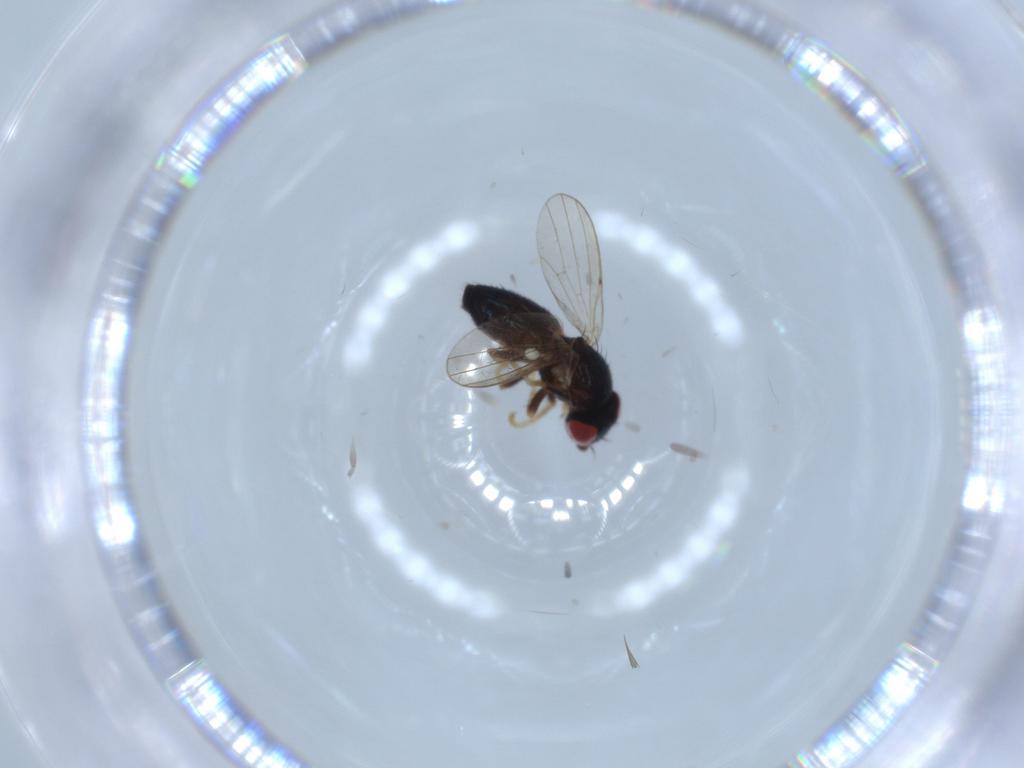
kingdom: Animalia
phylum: Arthropoda
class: Insecta
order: Diptera
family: Chamaemyiidae
